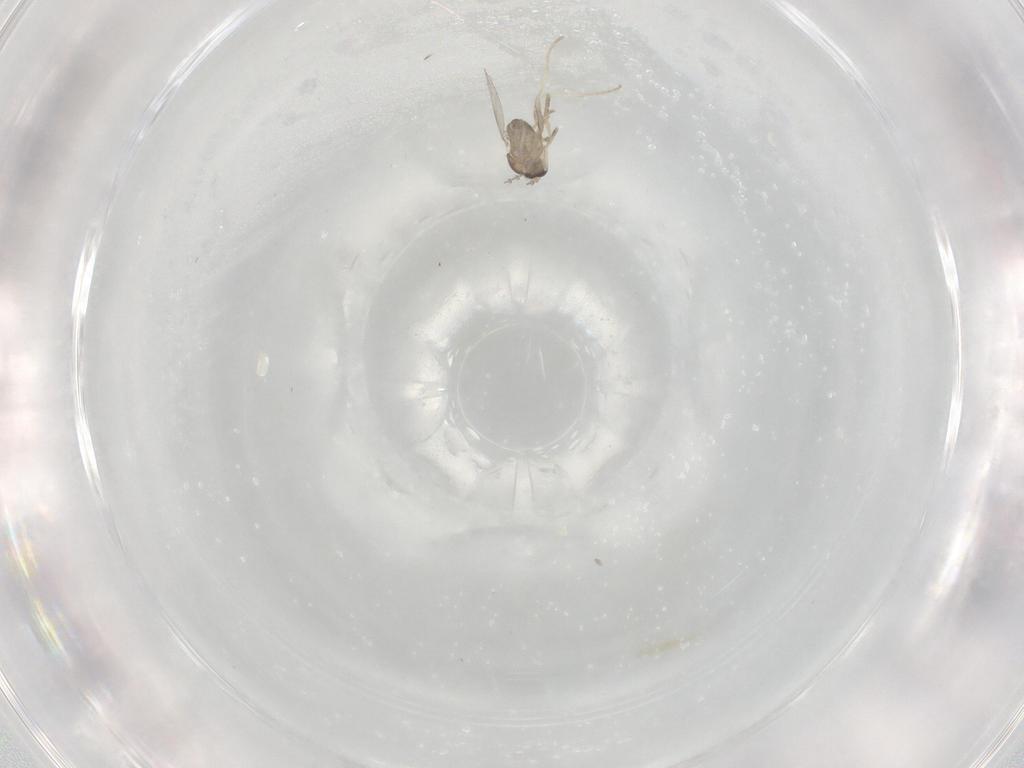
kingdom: Animalia
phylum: Arthropoda
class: Insecta
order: Diptera
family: Cecidomyiidae
